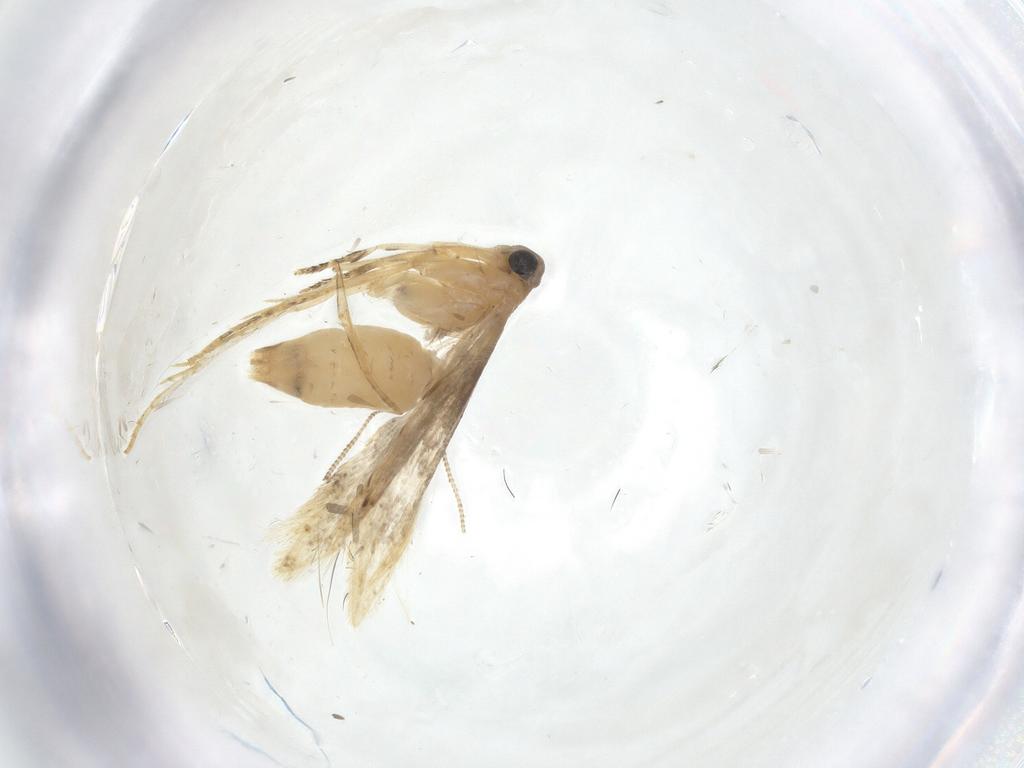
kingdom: Animalia
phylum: Arthropoda
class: Insecta
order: Lepidoptera
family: Tineidae
